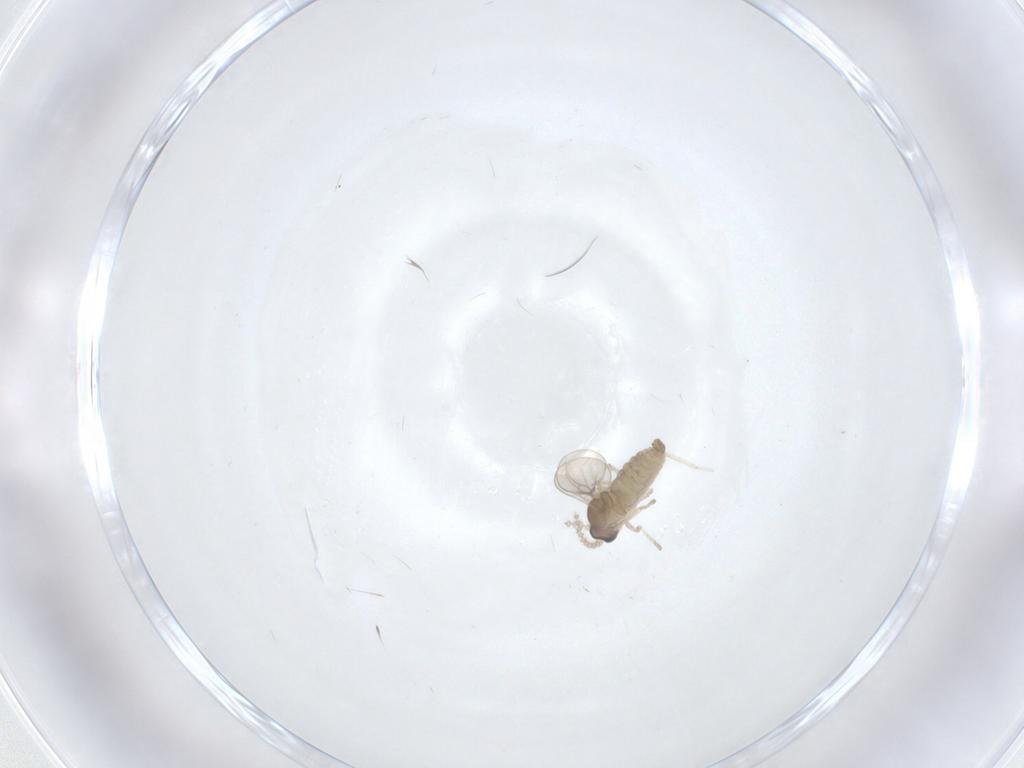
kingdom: Animalia
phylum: Arthropoda
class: Insecta
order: Diptera
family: Cecidomyiidae
